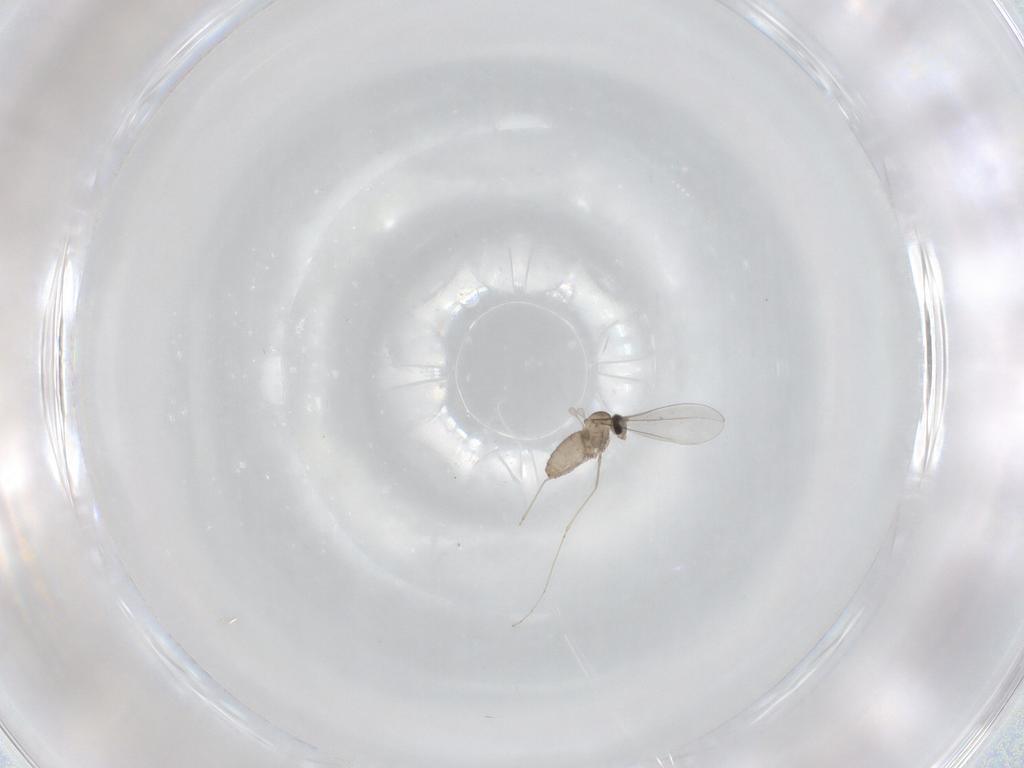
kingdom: Animalia
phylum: Arthropoda
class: Insecta
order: Diptera
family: Cecidomyiidae
